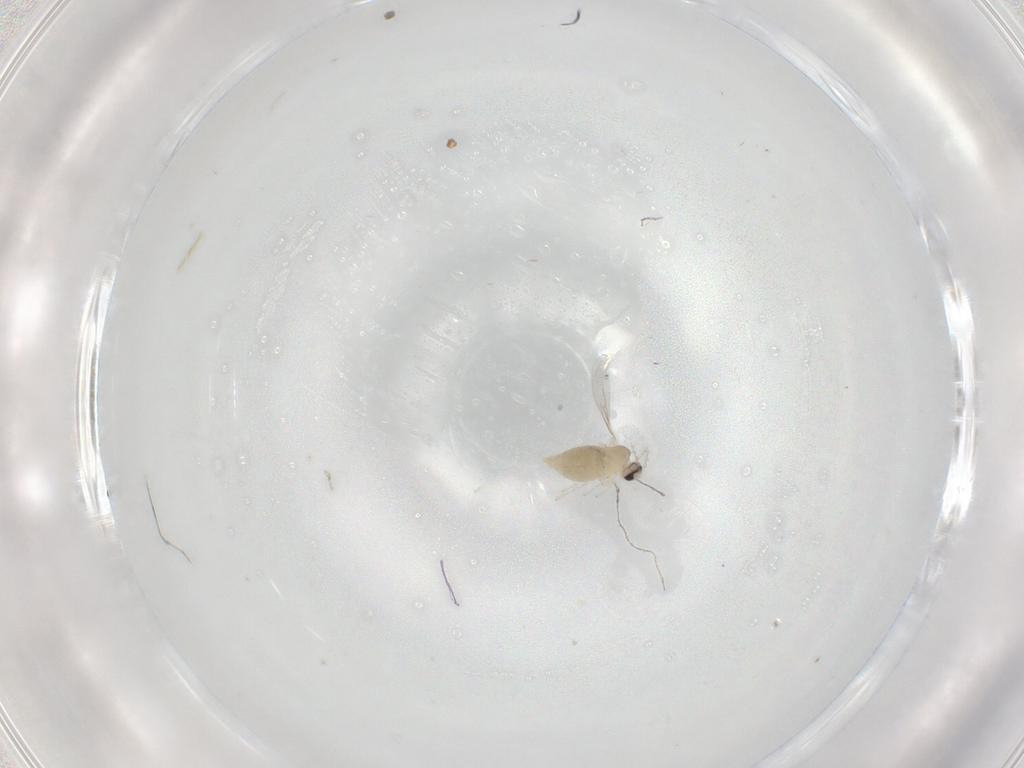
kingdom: Animalia
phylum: Arthropoda
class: Insecta
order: Diptera
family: Cecidomyiidae
